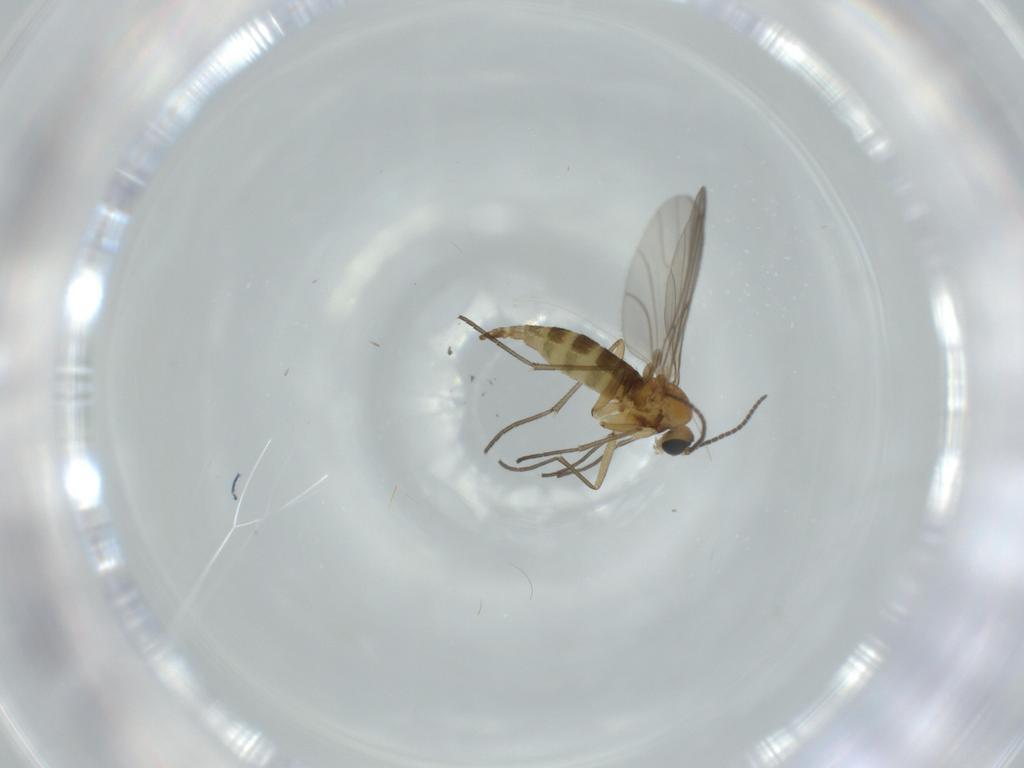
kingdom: Animalia
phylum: Arthropoda
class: Insecta
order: Diptera
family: Sciaridae
